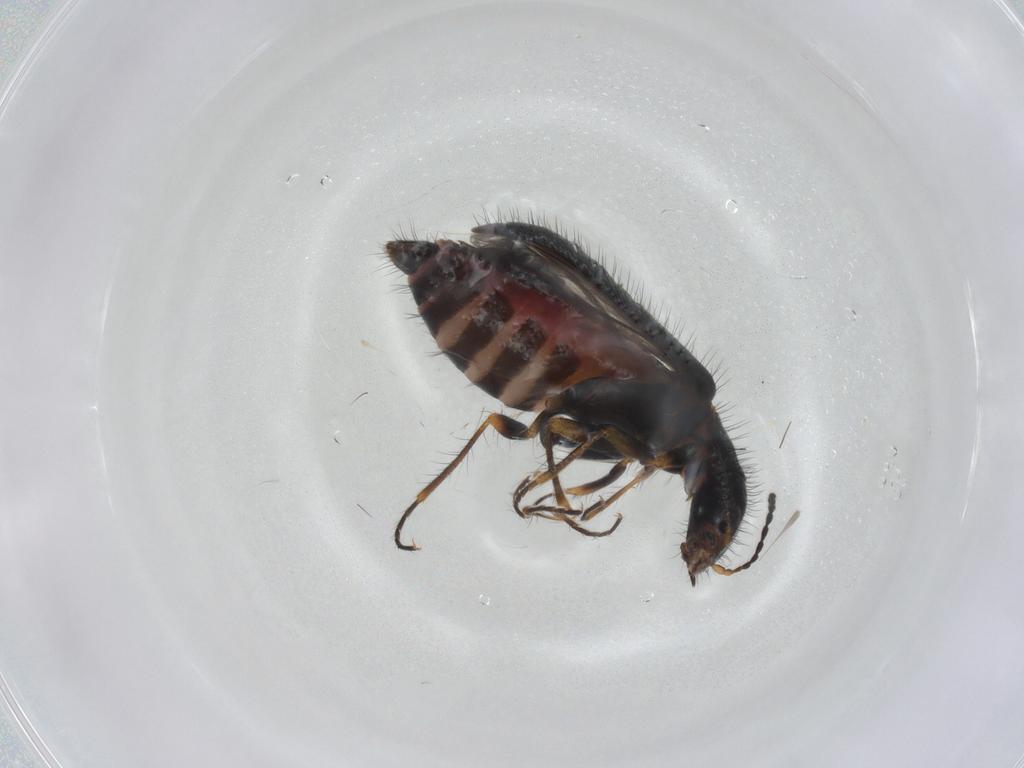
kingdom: Animalia
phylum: Arthropoda
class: Insecta
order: Coleoptera
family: Melyridae
